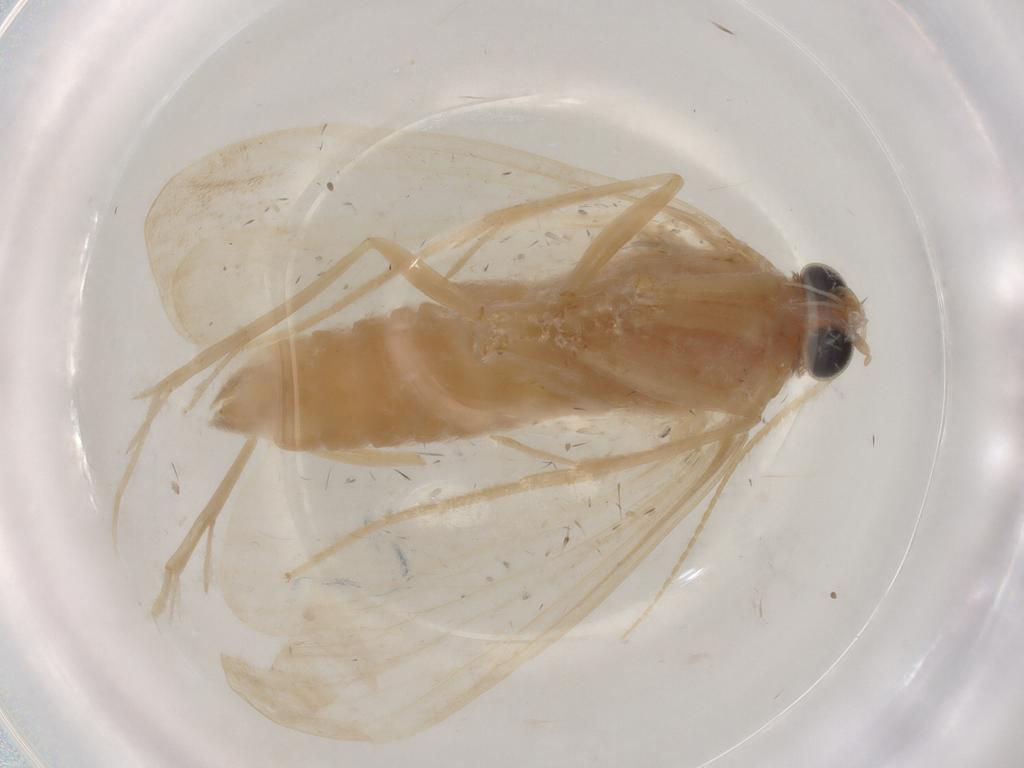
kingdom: Animalia
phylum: Arthropoda
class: Insecta
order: Lepidoptera
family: Crambidae
